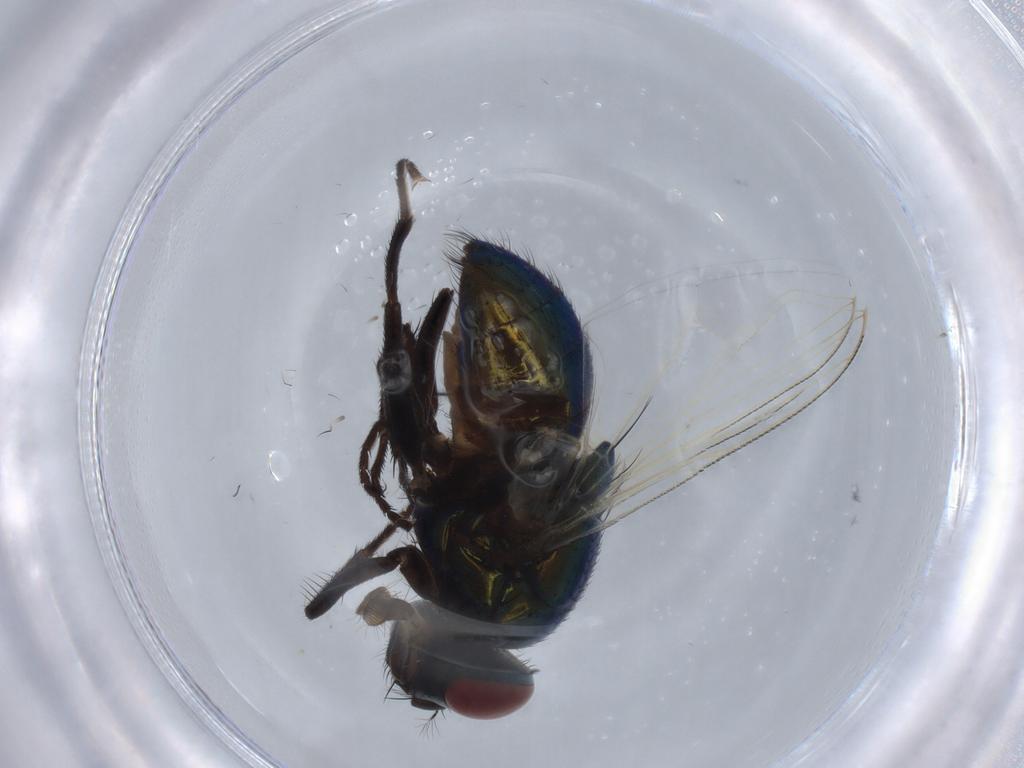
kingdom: Animalia
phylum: Arthropoda
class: Insecta
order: Diptera
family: Muscidae
